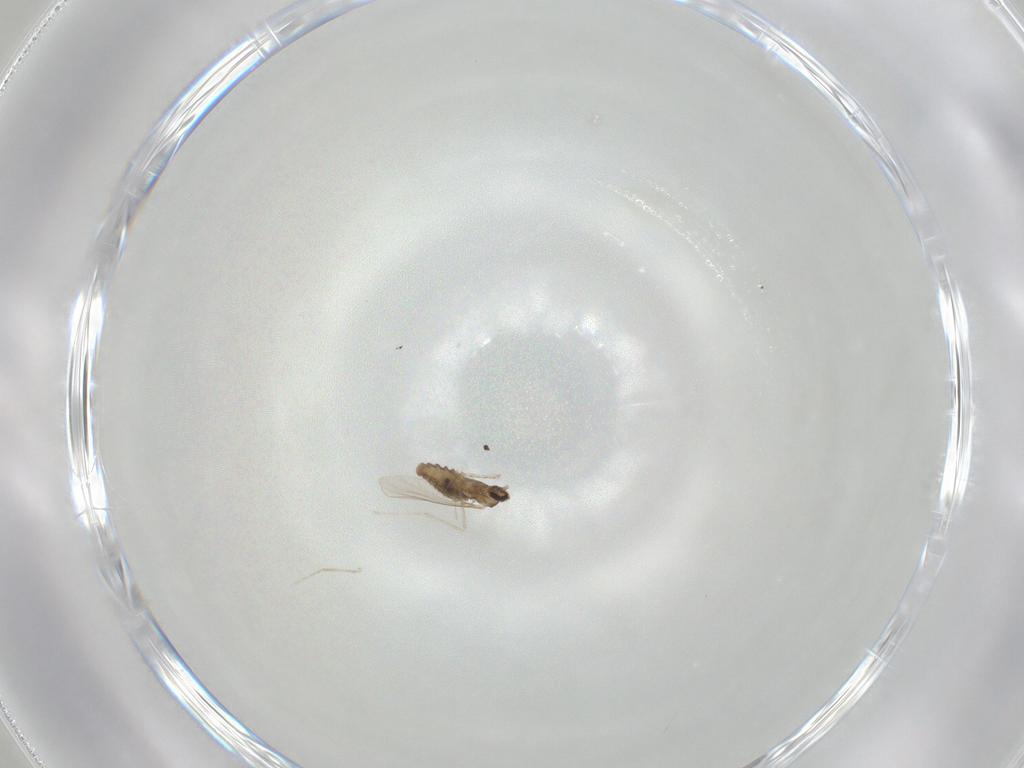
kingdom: Animalia
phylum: Arthropoda
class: Insecta
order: Diptera
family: Cecidomyiidae
